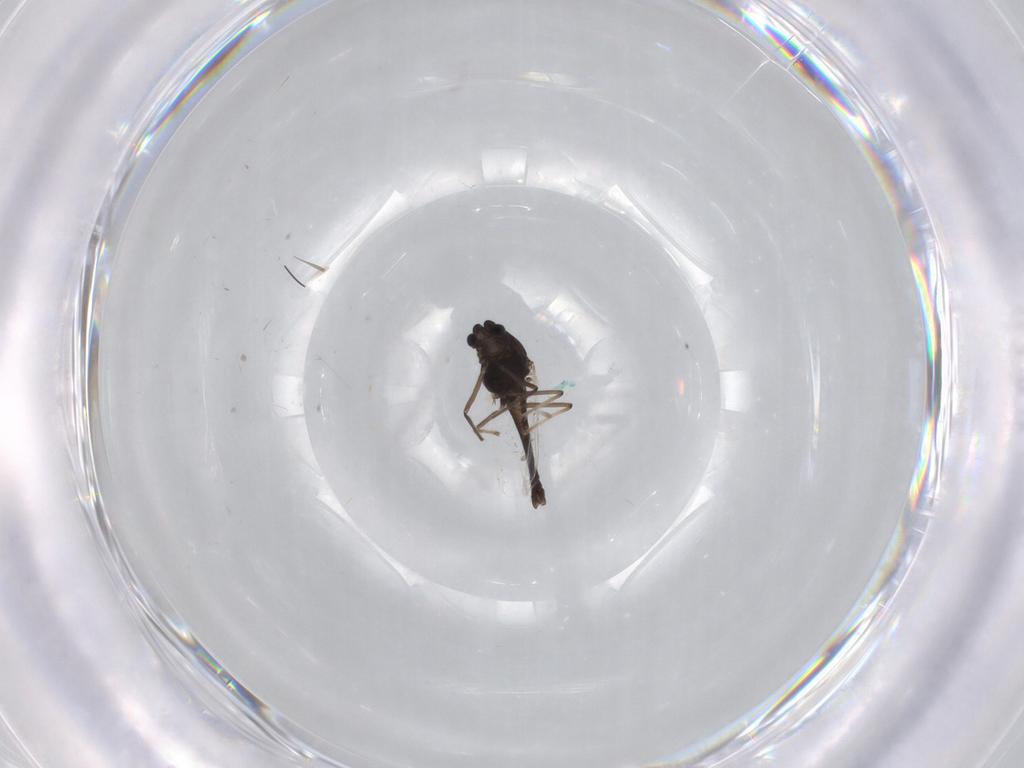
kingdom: Animalia
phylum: Arthropoda
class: Insecta
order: Diptera
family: Chironomidae
